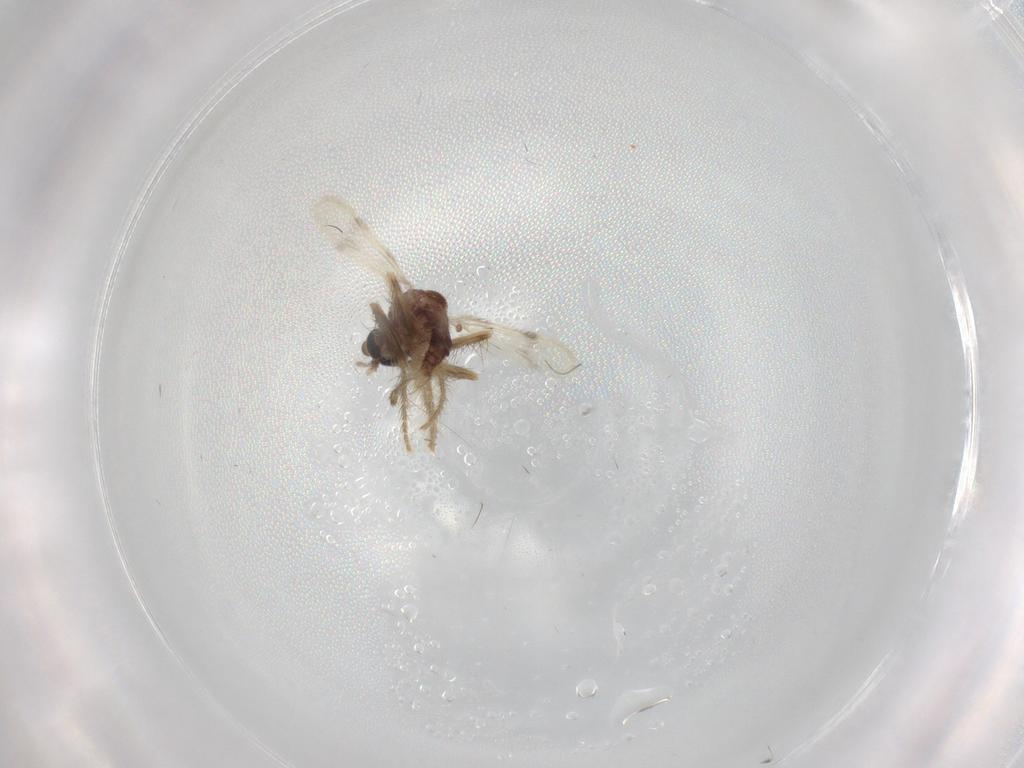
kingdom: Animalia
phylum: Arthropoda
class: Insecta
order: Diptera
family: Corethrellidae
